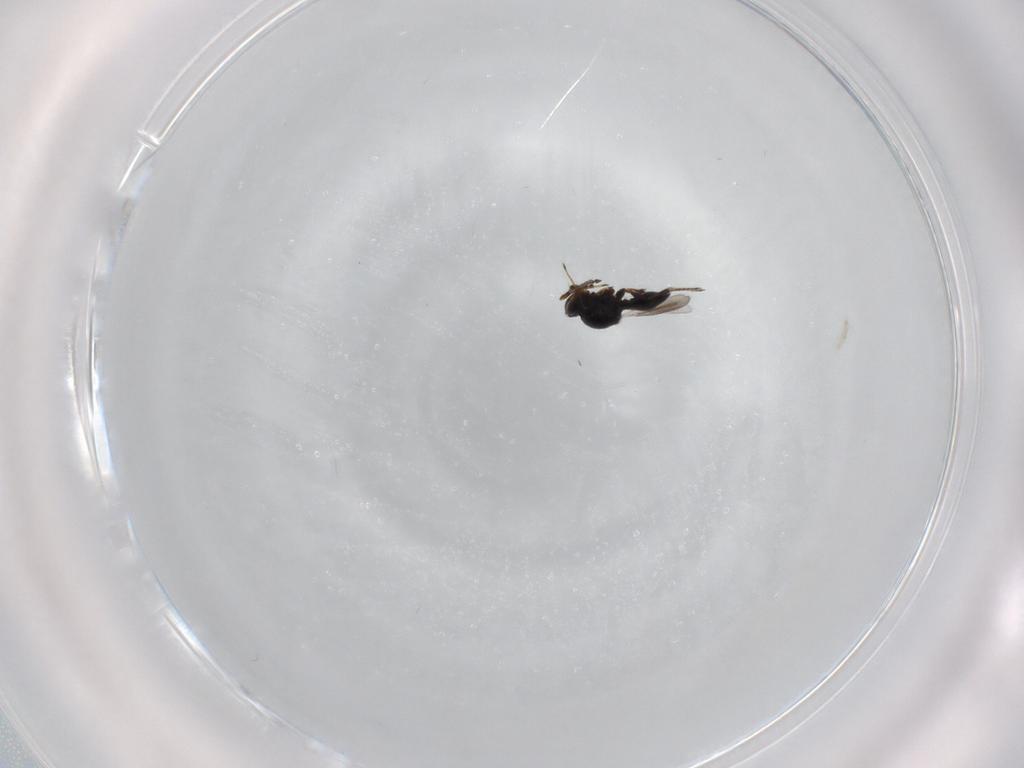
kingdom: Animalia
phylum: Arthropoda
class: Insecta
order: Hymenoptera
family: Platygastridae
